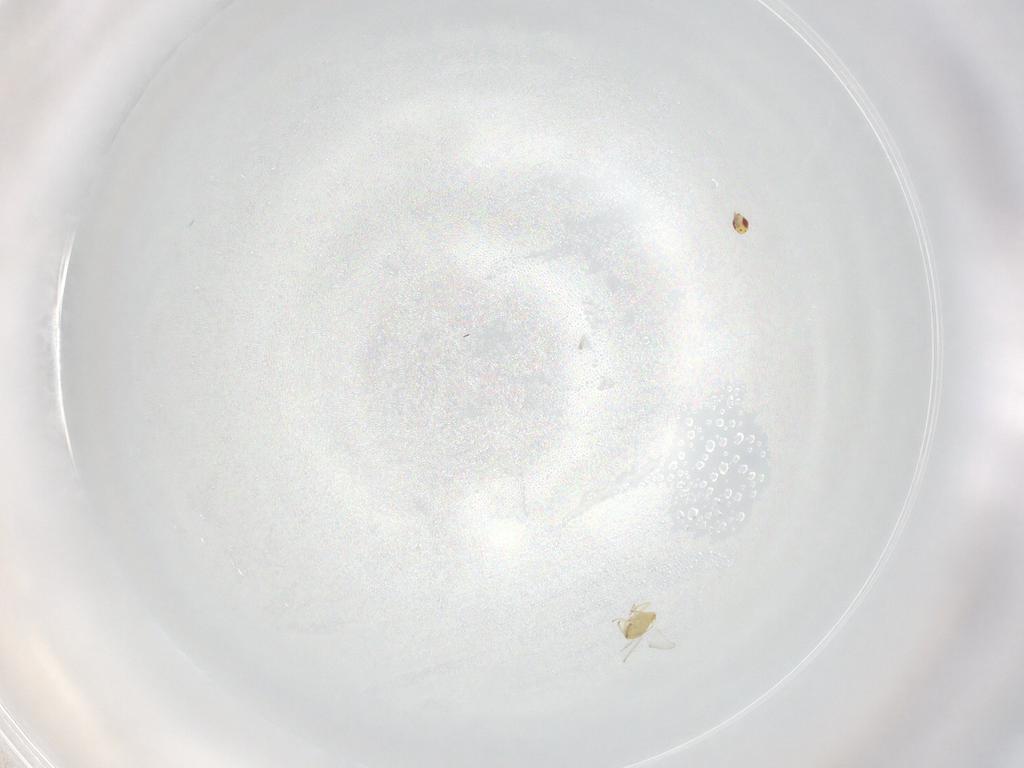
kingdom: Animalia
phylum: Arthropoda
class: Insecta
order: Hymenoptera
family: Trichogrammatidae
